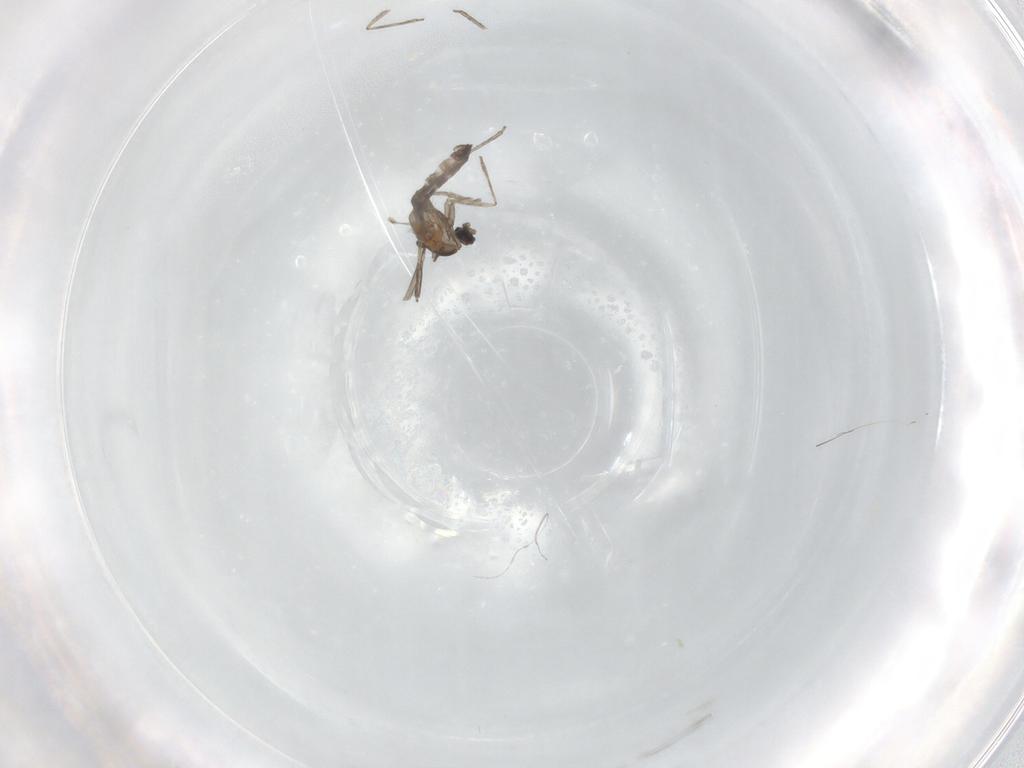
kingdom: Animalia
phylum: Arthropoda
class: Insecta
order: Diptera
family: Cecidomyiidae
